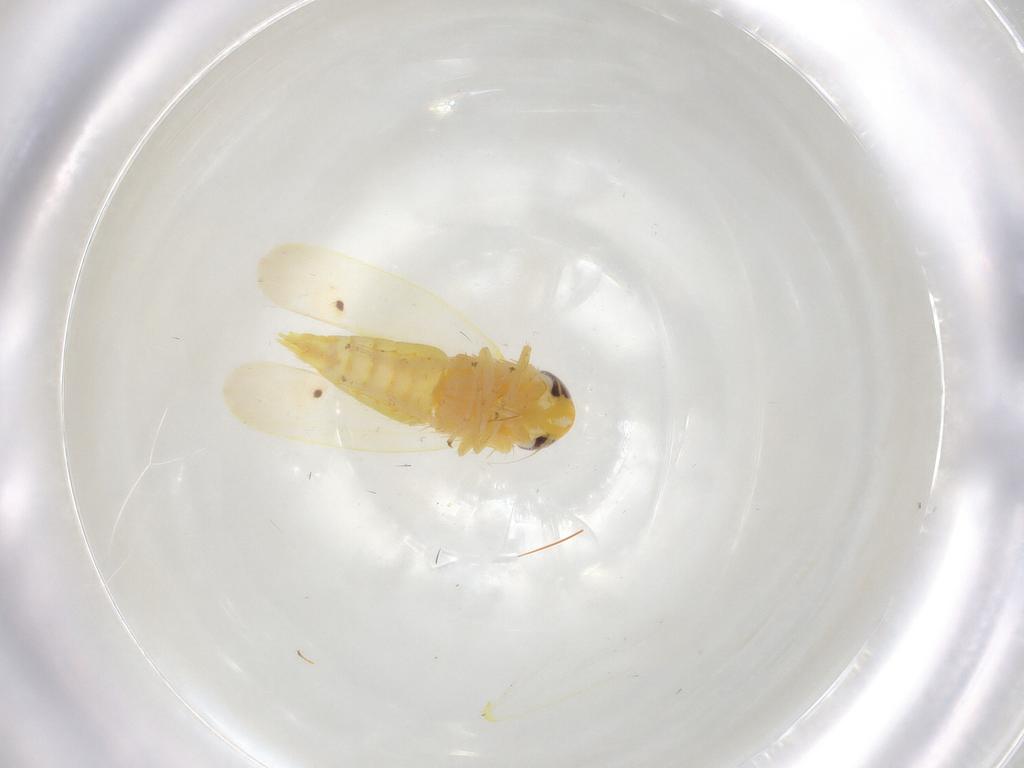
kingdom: Animalia
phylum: Arthropoda
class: Insecta
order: Hemiptera
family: Cicadellidae
